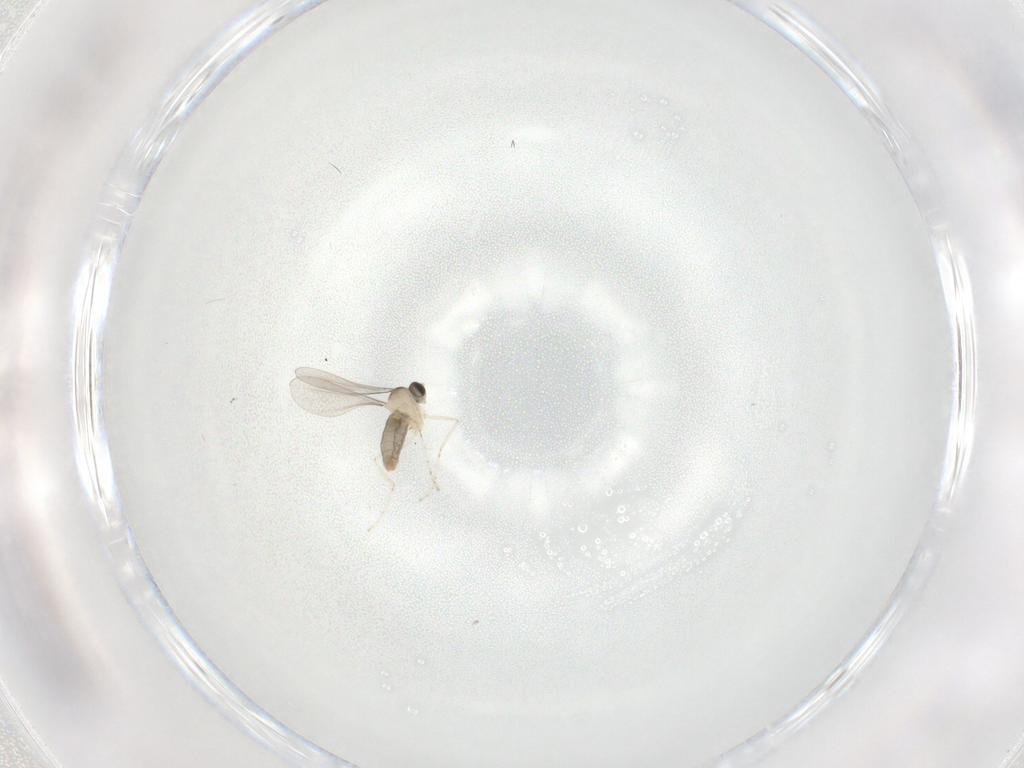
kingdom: Animalia
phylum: Arthropoda
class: Insecta
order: Diptera
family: Cecidomyiidae
